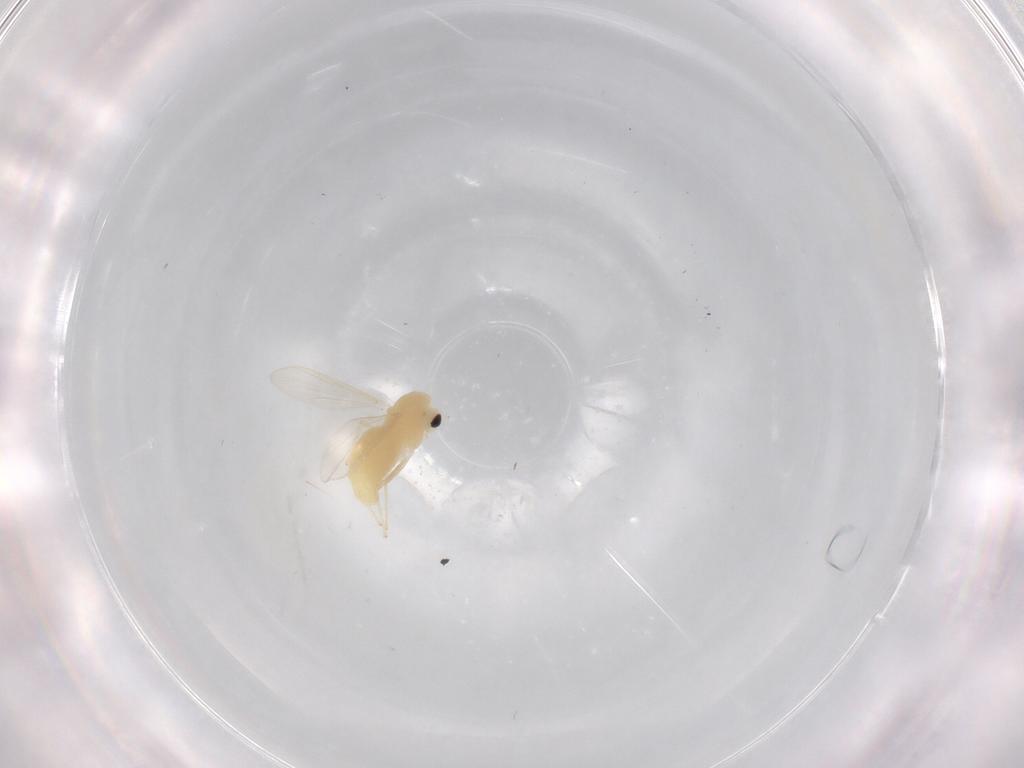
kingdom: Animalia
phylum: Arthropoda
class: Insecta
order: Diptera
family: Chironomidae
